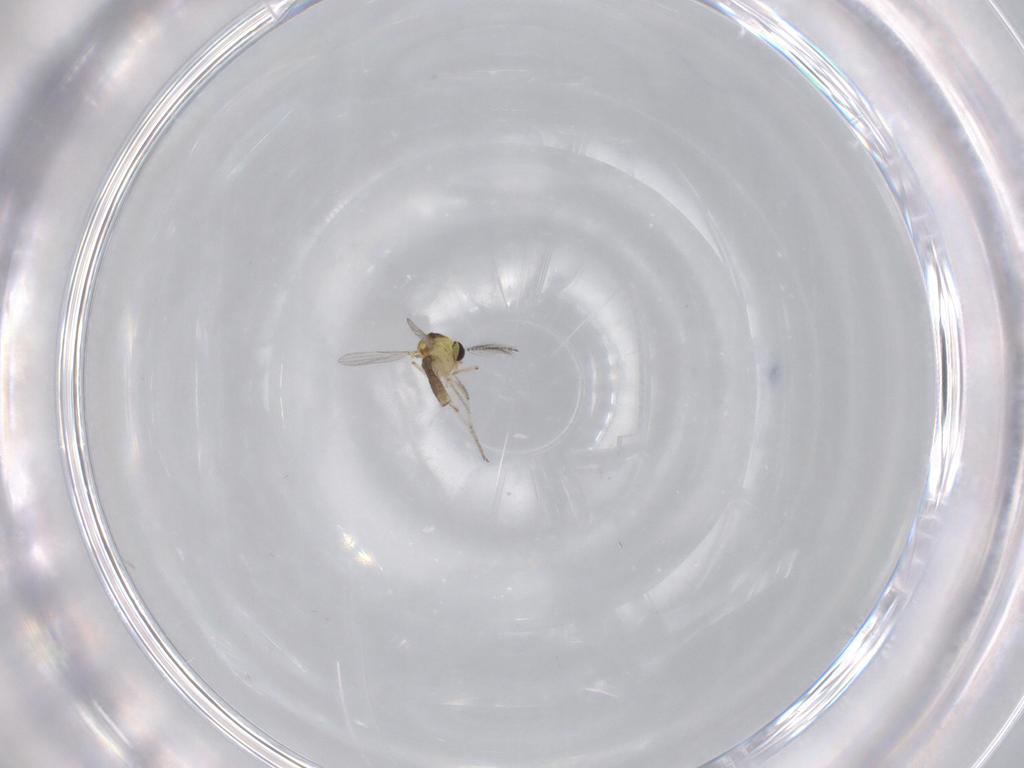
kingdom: Animalia
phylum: Arthropoda
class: Insecta
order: Diptera
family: Ceratopogonidae
